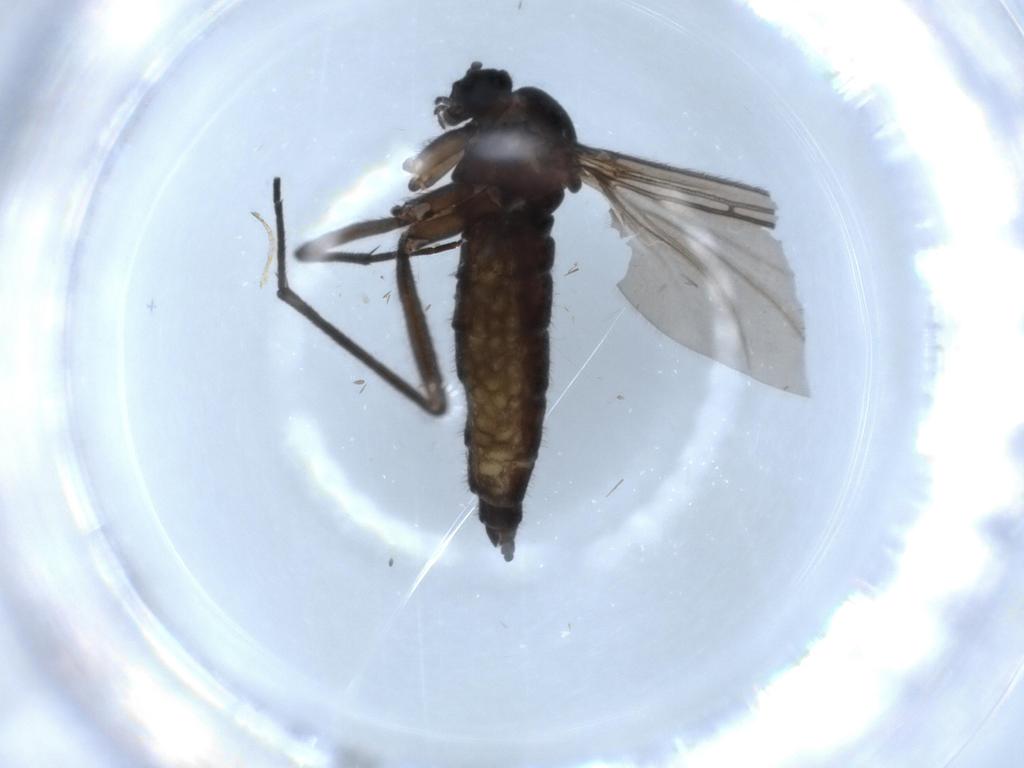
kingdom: Animalia
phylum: Arthropoda
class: Insecta
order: Diptera
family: Sciaridae
